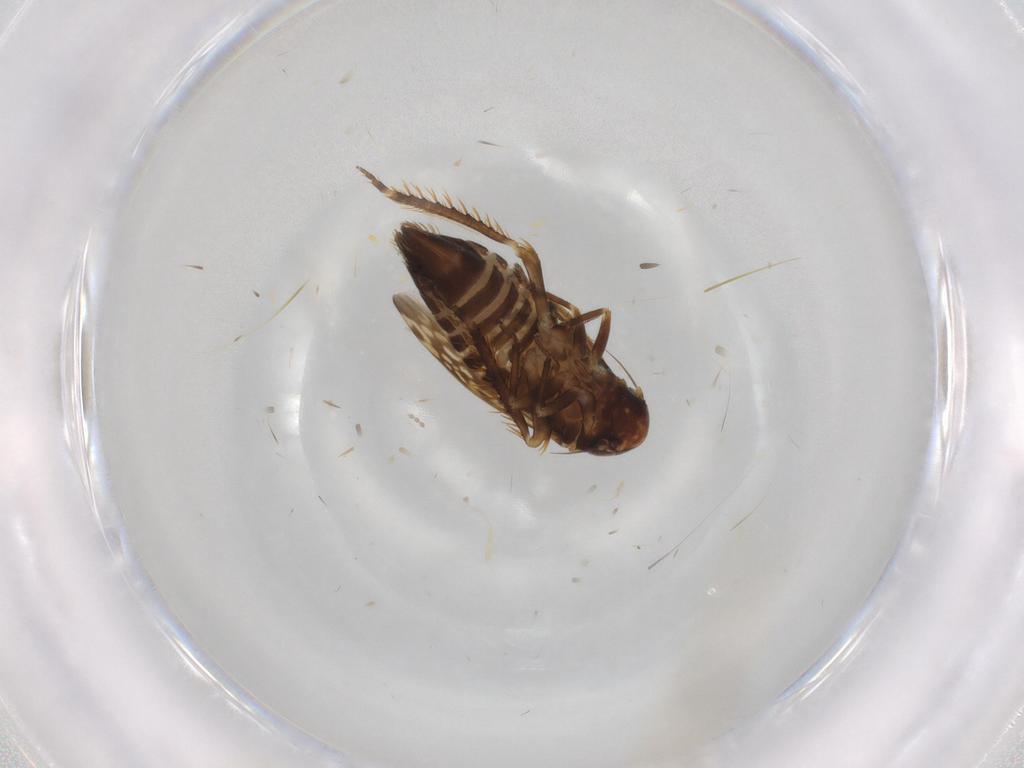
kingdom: Animalia
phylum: Arthropoda
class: Insecta
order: Hemiptera
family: Cicadellidae
